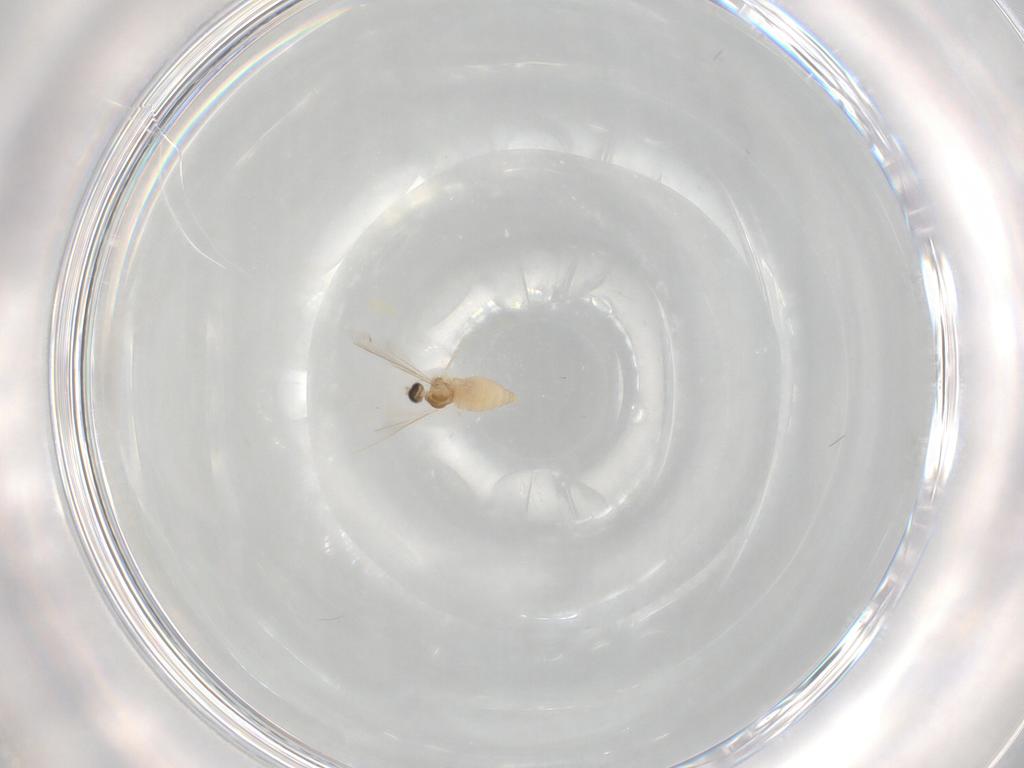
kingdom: Animalia
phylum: Arthropoda
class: Insecta
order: Diptera
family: Cecidomyiidae
